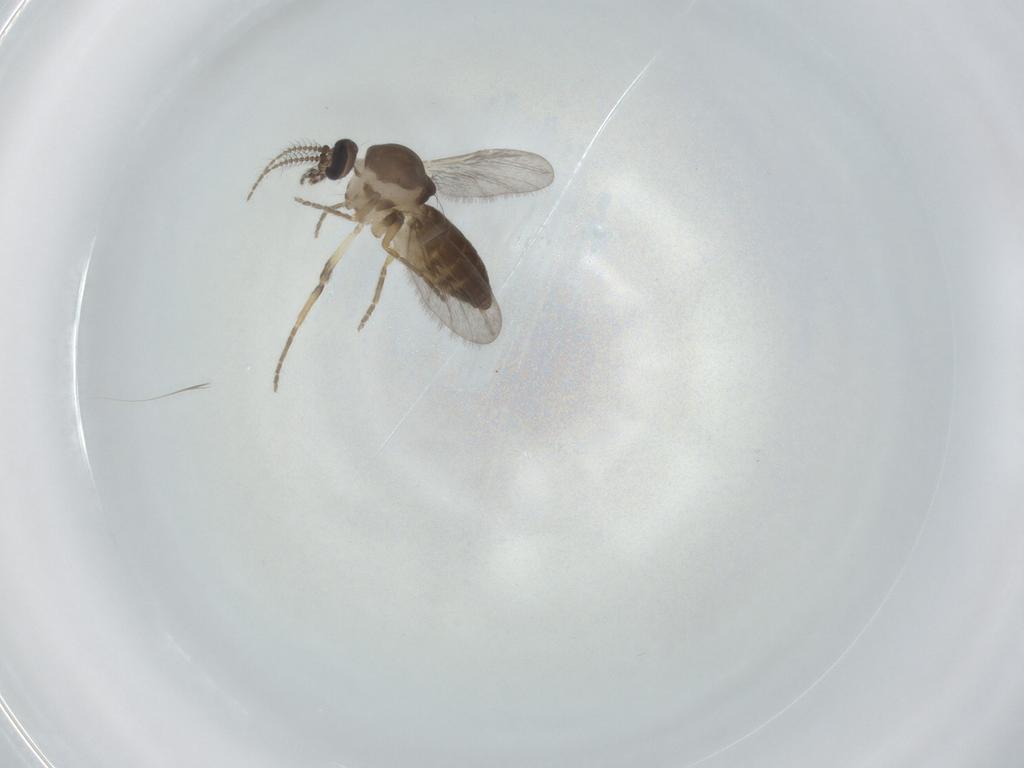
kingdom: Animalia
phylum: Arthropoda
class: Insecta
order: Diptera
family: Ceratopogonidae
